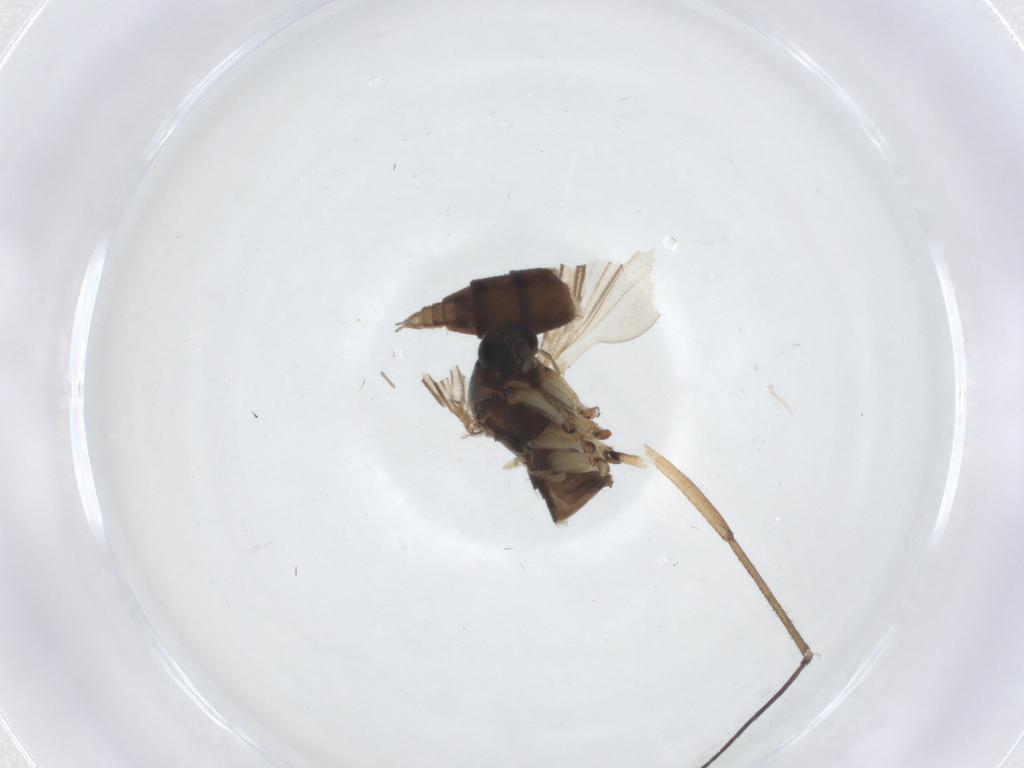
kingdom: Animalia
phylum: Arthropoda
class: Insecta
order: Diptera
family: Sciaridae
